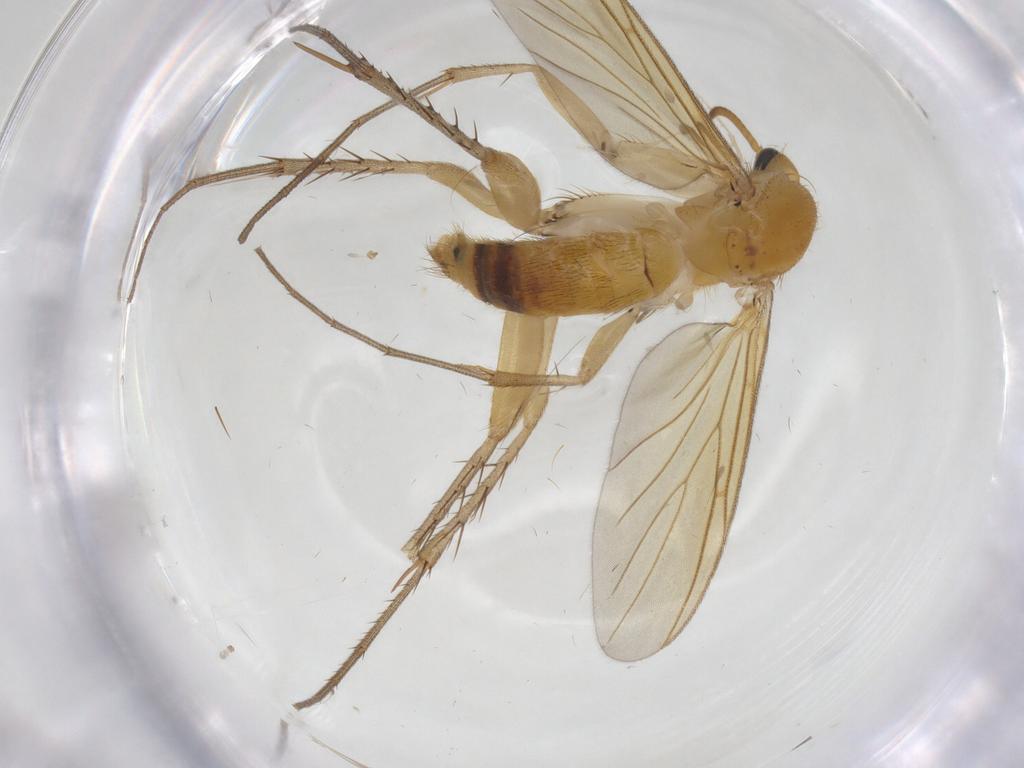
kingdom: Animalia
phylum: Arthropoda
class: Insecta
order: Diptera
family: Mycetophilidae
